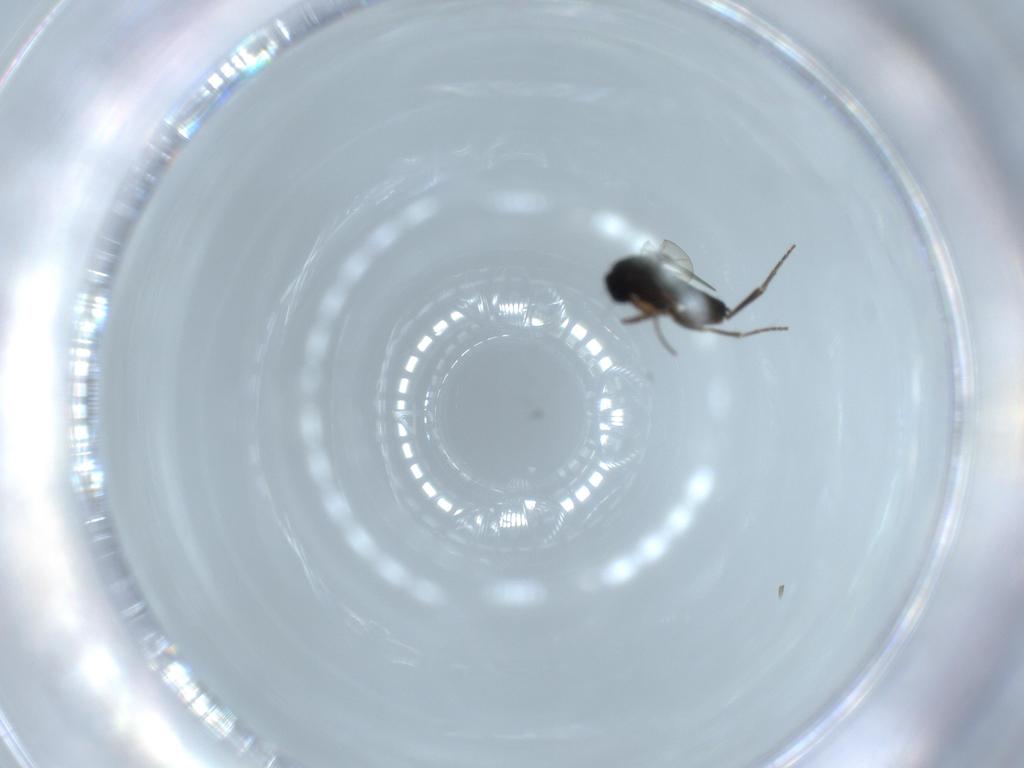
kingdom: Animalia
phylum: Arthropoda
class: Insecta
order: Diptera
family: Phoridae
